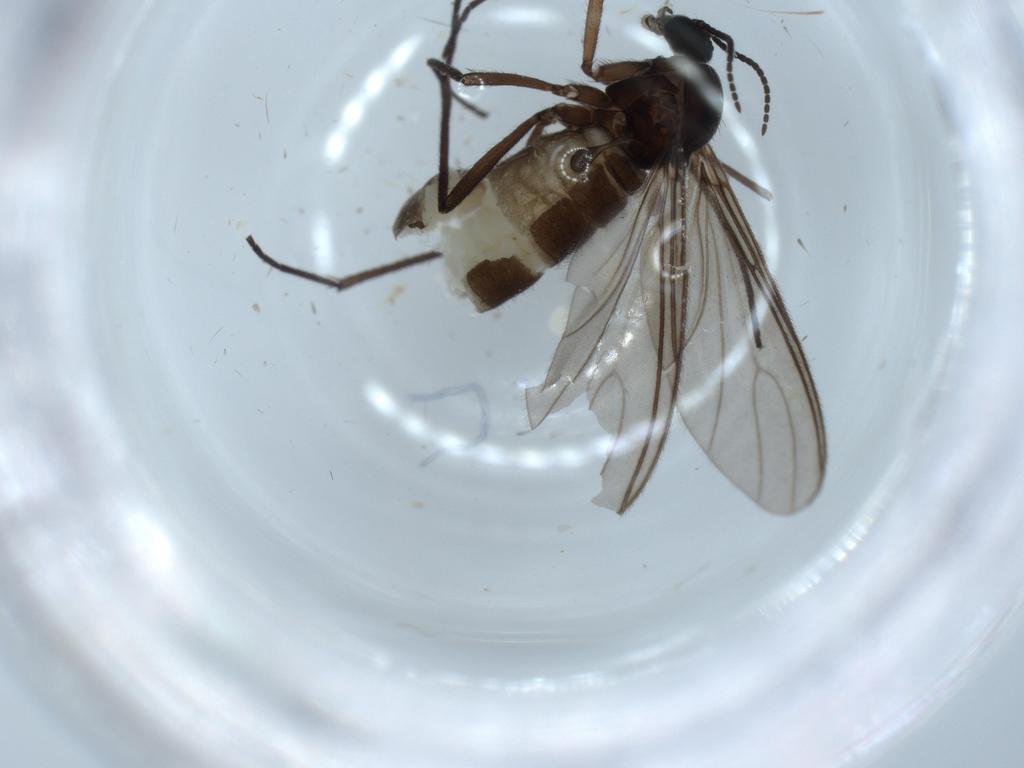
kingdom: Animalia
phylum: Arthropoda
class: Insecta
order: Diptera
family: Sciaridae
